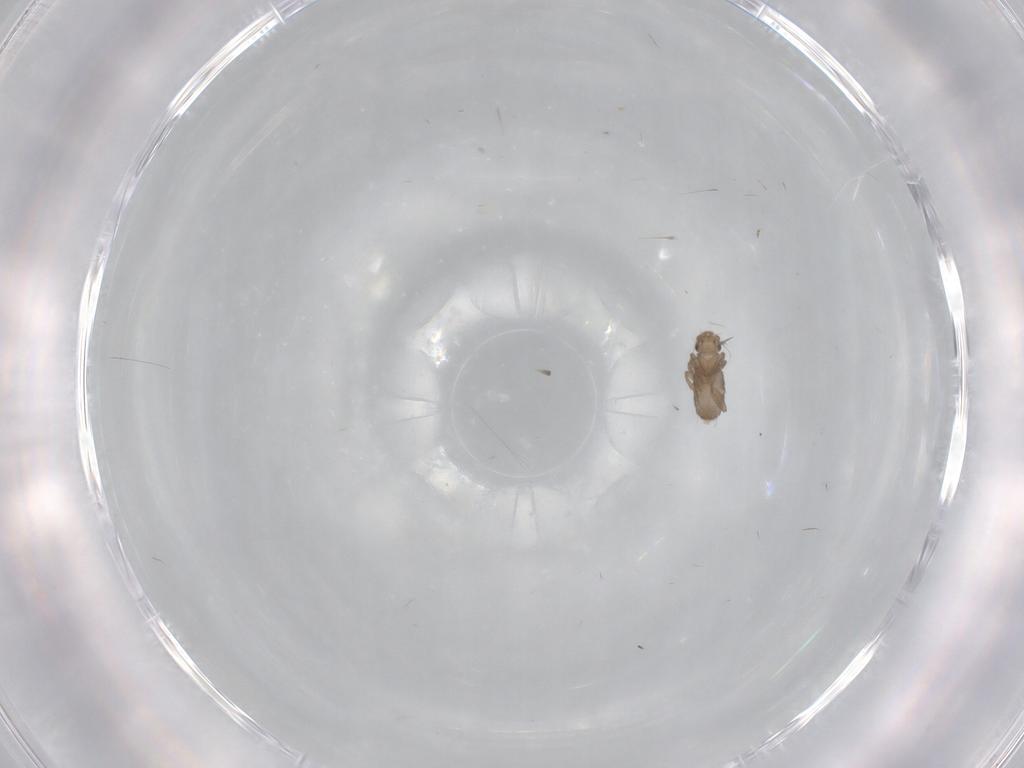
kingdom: Animalia
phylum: Arthropoda
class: Insecta
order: Diptera
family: Phoridae
